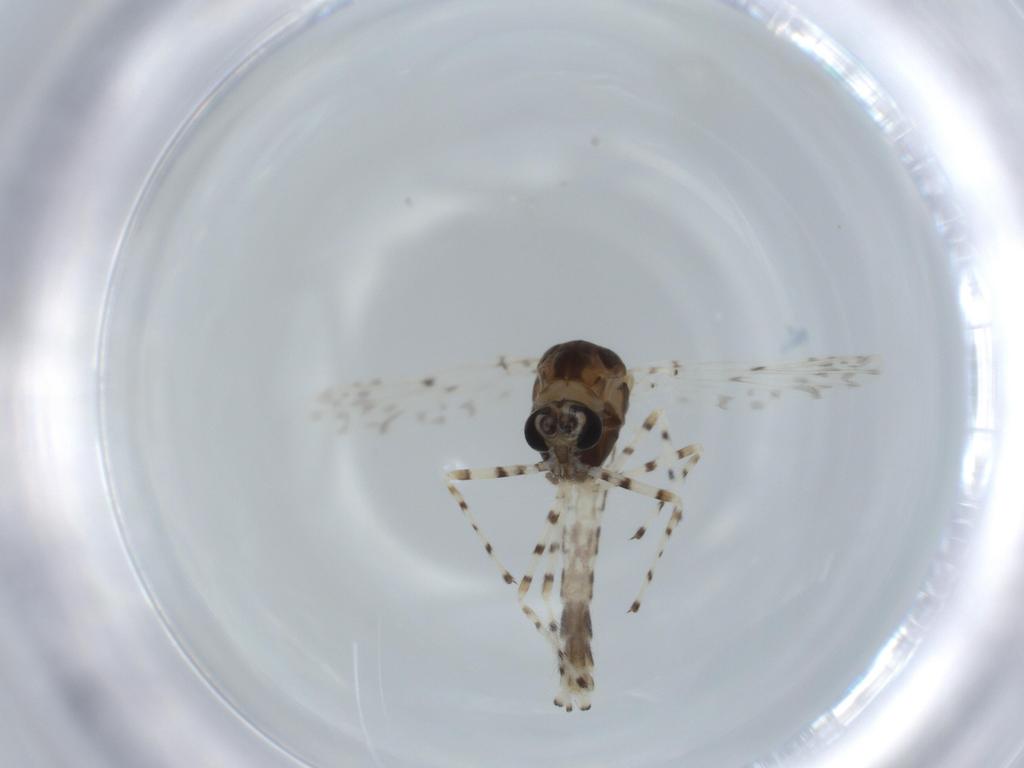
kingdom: Animalia
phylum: Arthropoda
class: Insecta
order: Diptera
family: Chironomidae
